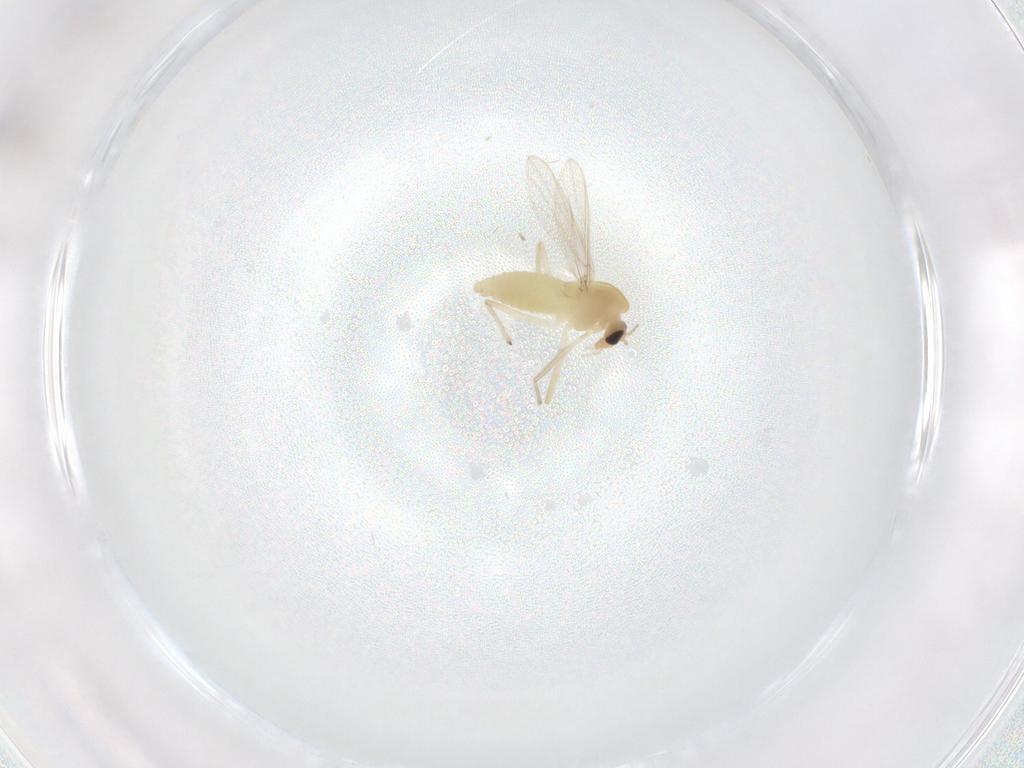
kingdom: Animalia
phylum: Arthropoda
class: Insecta
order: Diptera
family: Chironomidae
